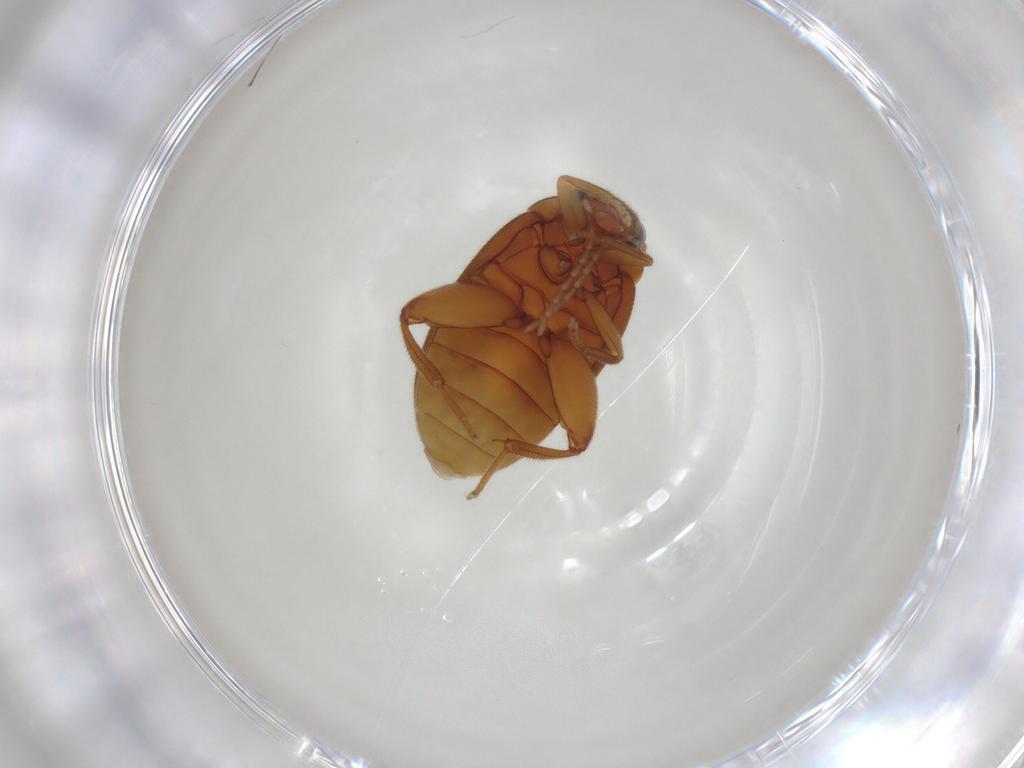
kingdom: Animalia
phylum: Arthropoda
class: Insecta
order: Coleoptera
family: Scirtidae
